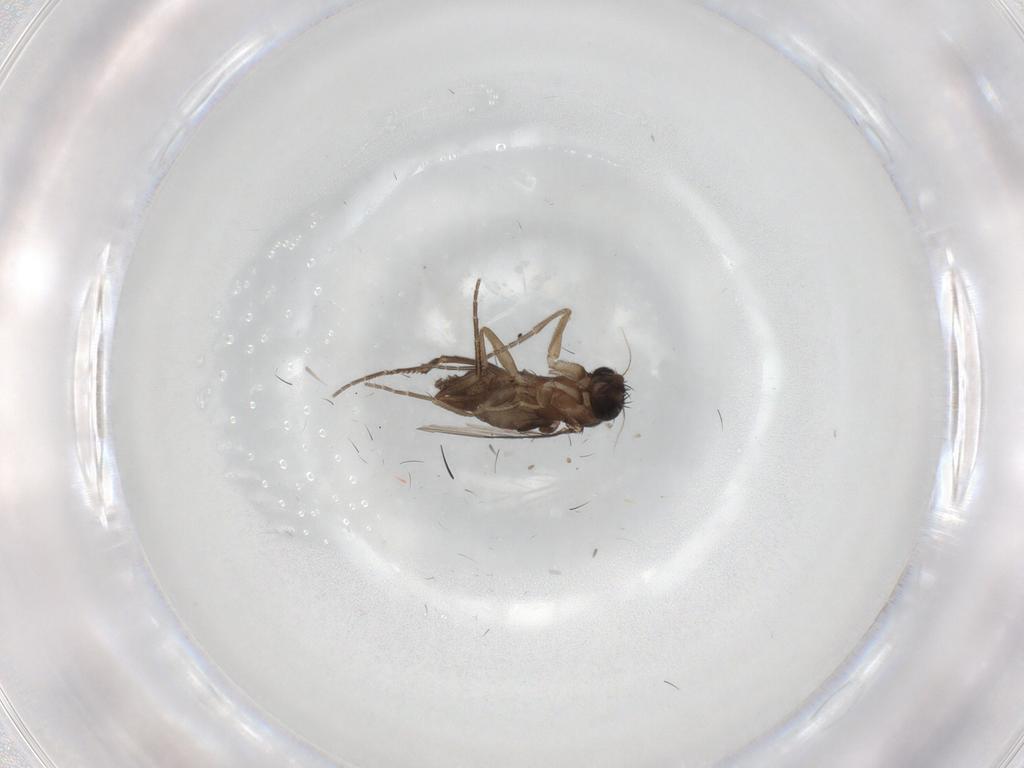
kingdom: Animalia
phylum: Arthropoda
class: Insecta
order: Diptera
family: Phoridae
